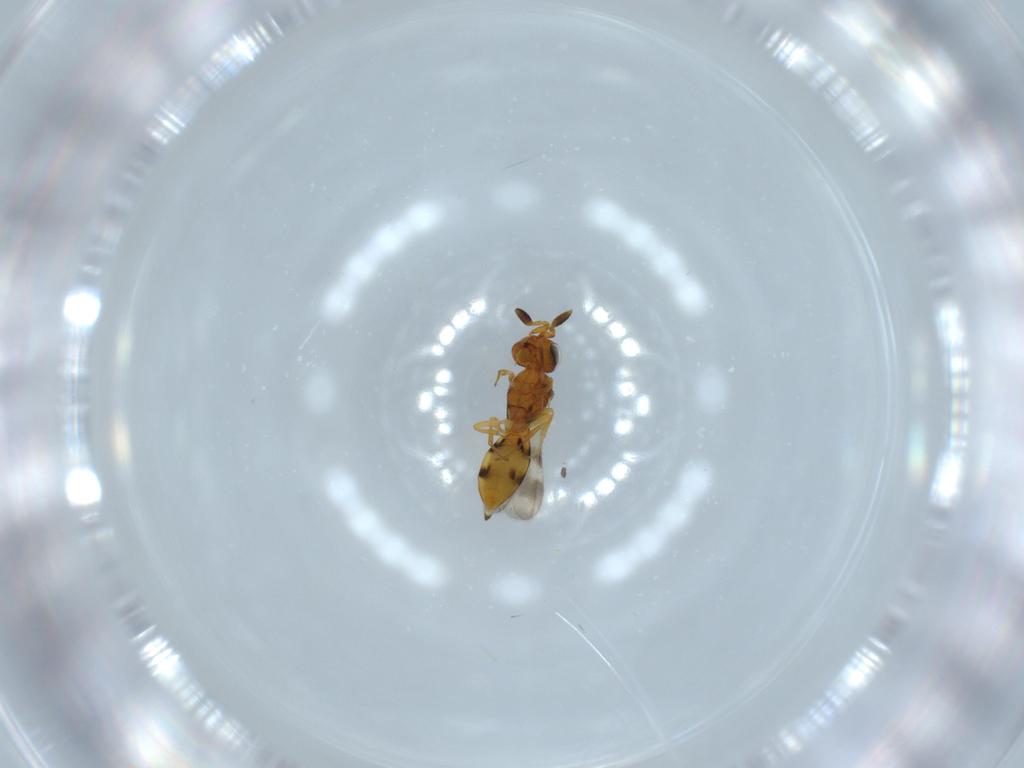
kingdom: Animalia
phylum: Arthropoda
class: Insecta
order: Hymenoptera
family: Scelionidae
